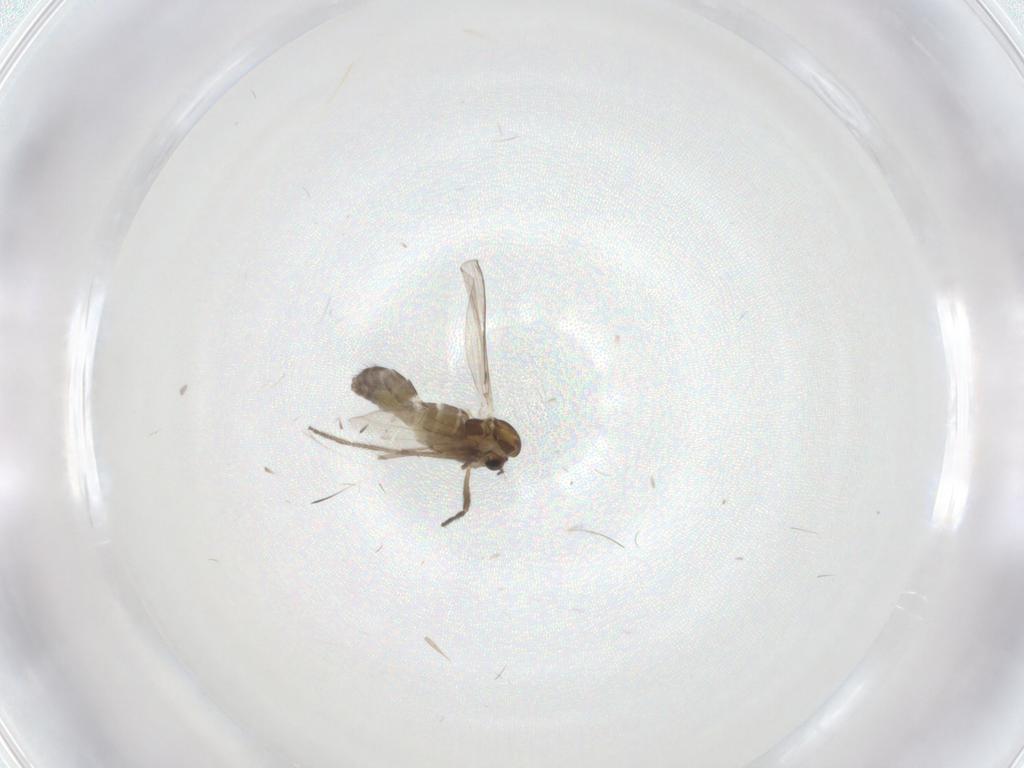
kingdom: Animalia
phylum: Arthropoda
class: Insecta
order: Diptera
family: Chironomidae
